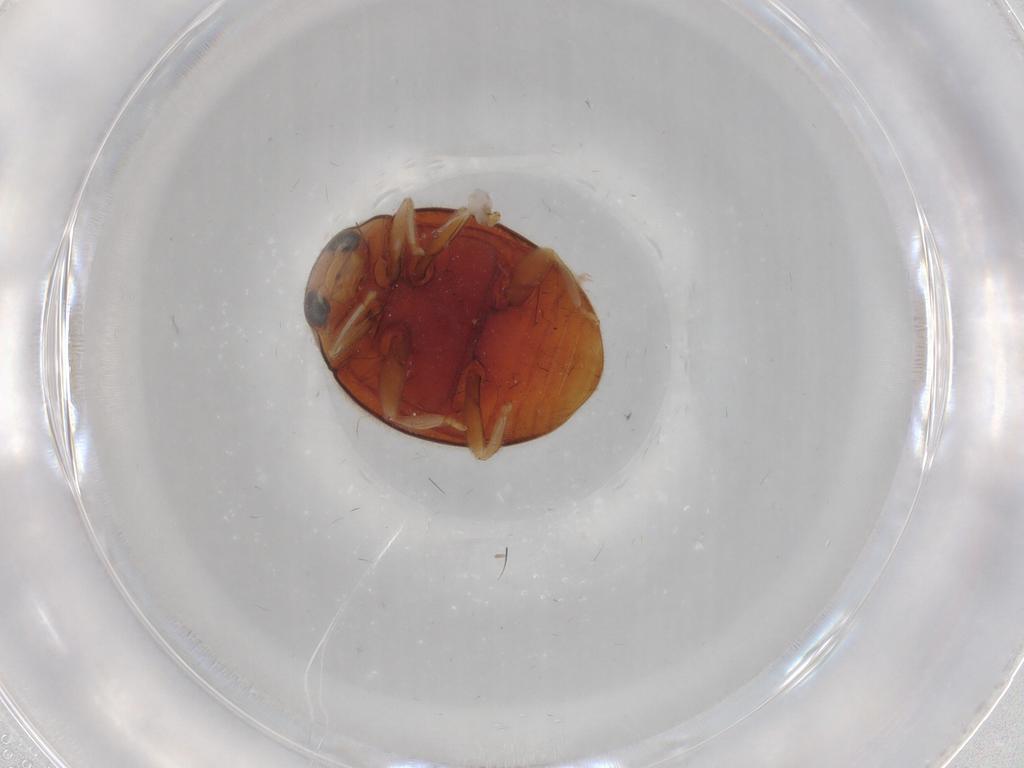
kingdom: Animalia
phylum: Arthropoda
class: Insecta
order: Coleoptera
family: Coccinellidae
